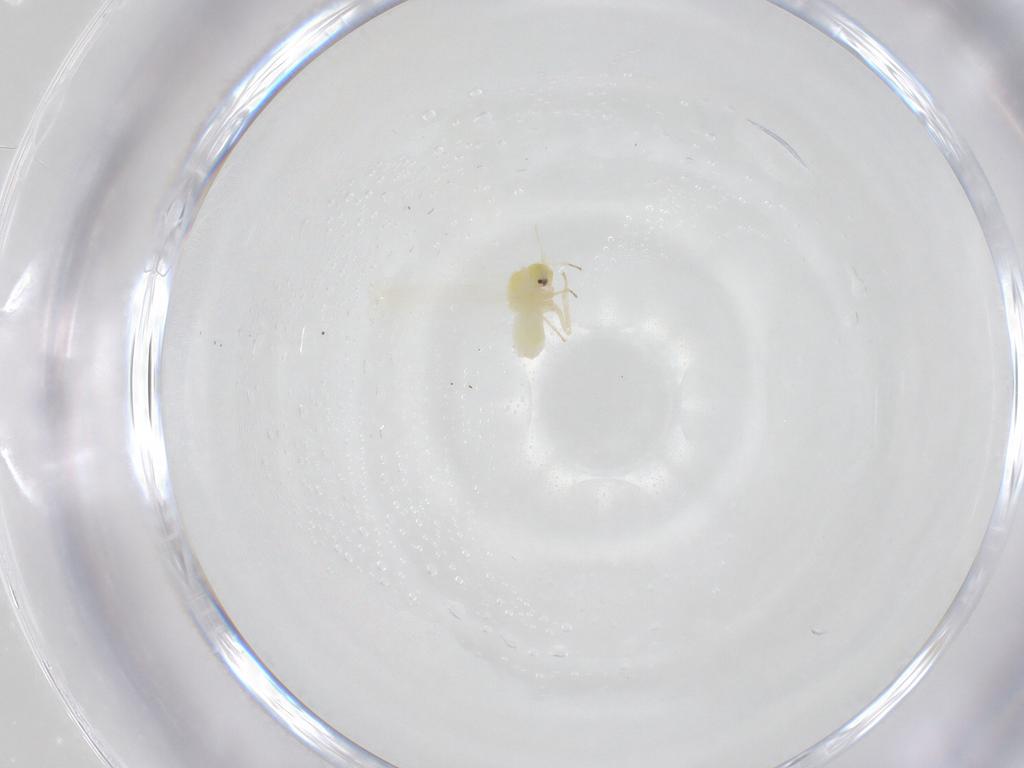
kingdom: Animalia
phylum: Arthropoda
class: Insecta
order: Hemiptera
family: Aleyrodidae
